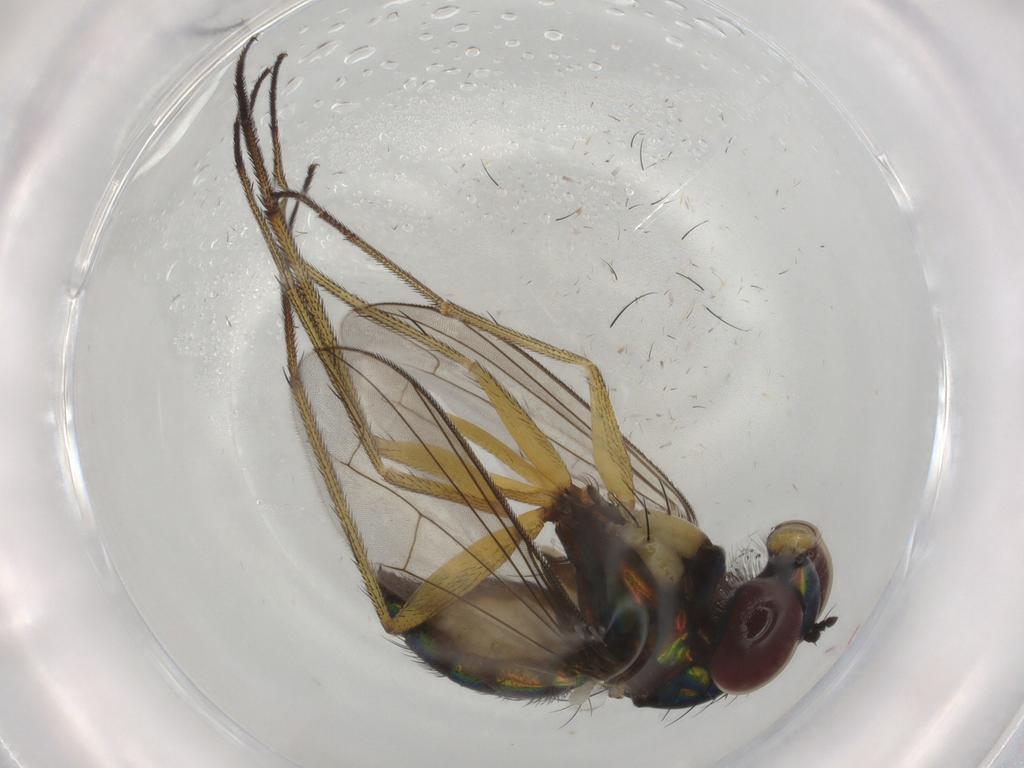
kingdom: Animalia
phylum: Arthropoda
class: Insecta
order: Diptera
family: Dolichopodidae
